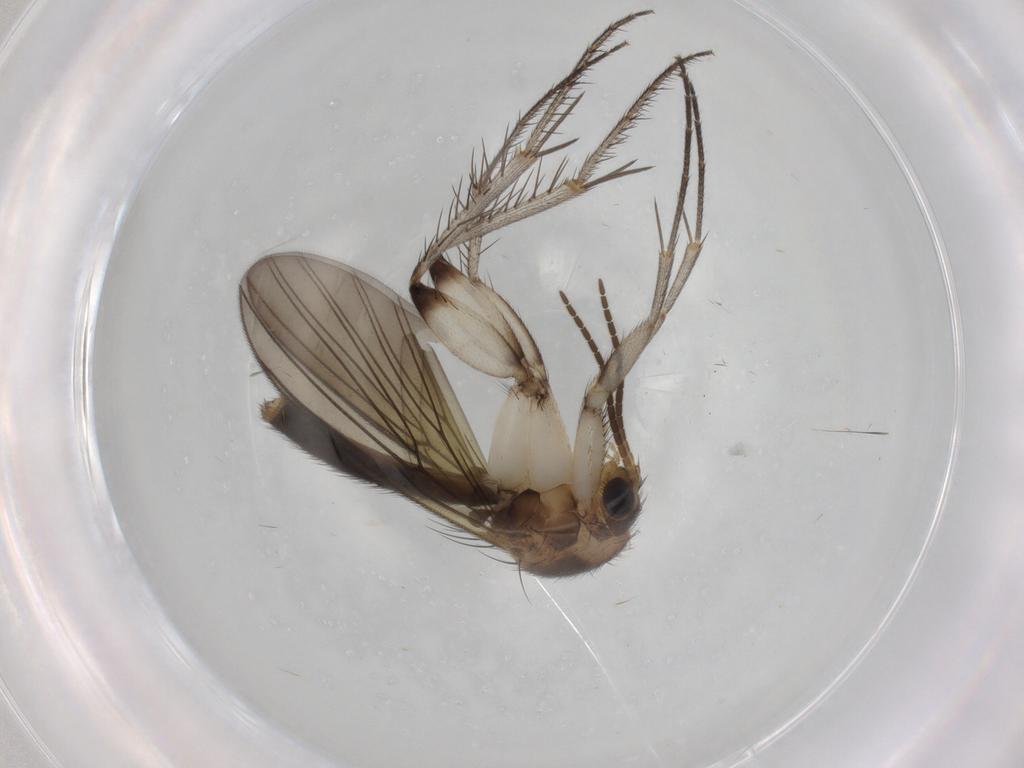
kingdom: Animalia
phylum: Arthropoda
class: Insecta
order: Diptera
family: Mycetophilidae
